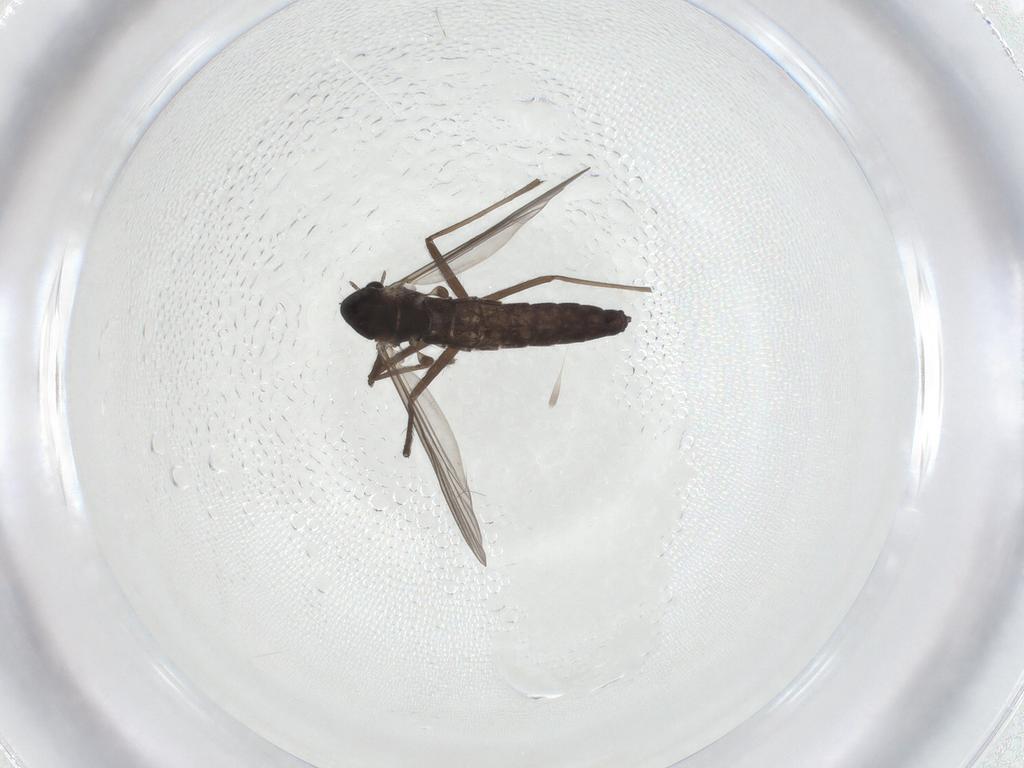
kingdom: Animalia
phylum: Arthropoda
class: Insecta
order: Diptera
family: Chironomidae
